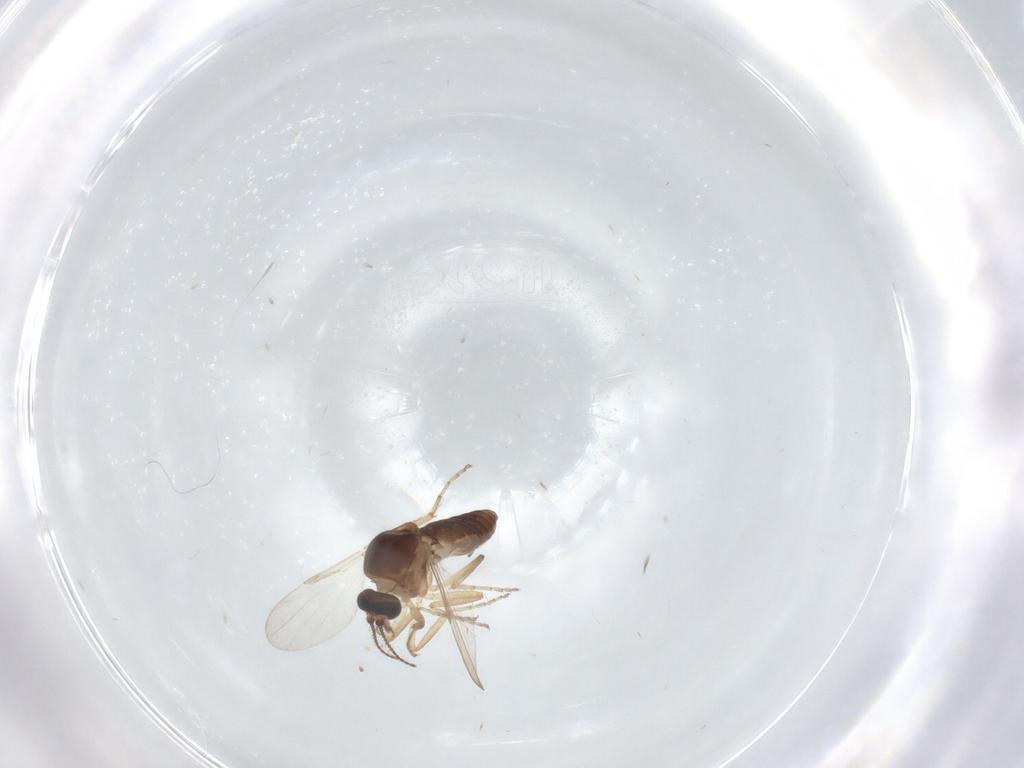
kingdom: Animalia
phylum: Arthropoda
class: Insecta
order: Diptera
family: Ceratopogonidae
